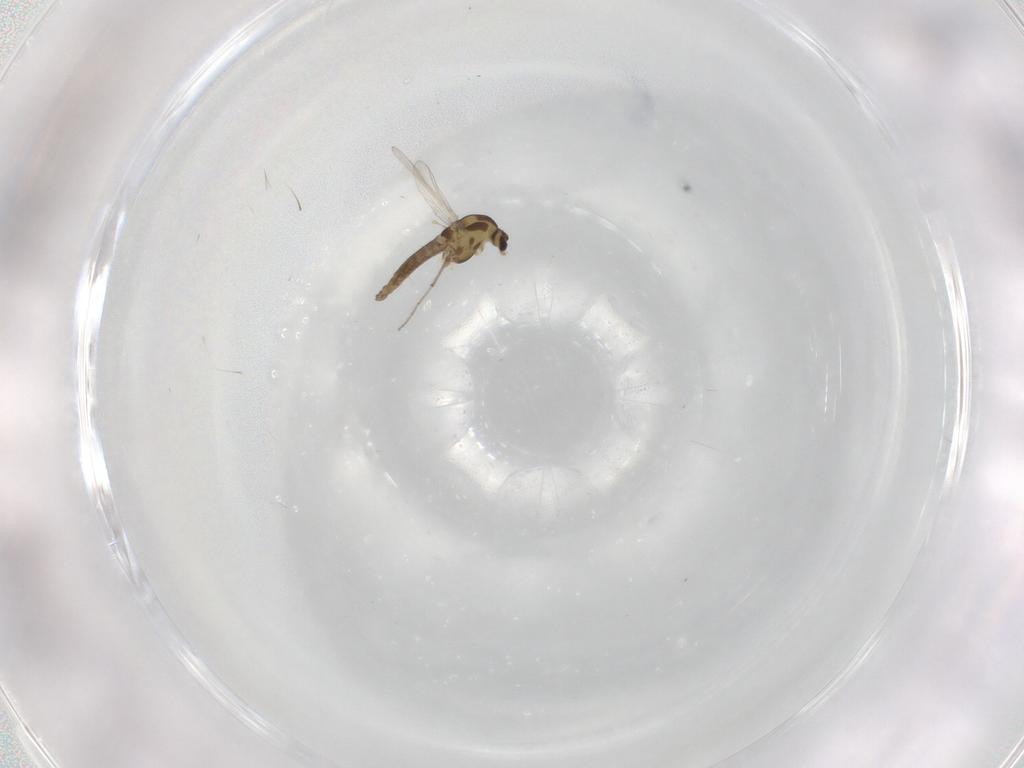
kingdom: Animalia
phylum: Arthropoda
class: Insecta
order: Diptera
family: Chironomidae
